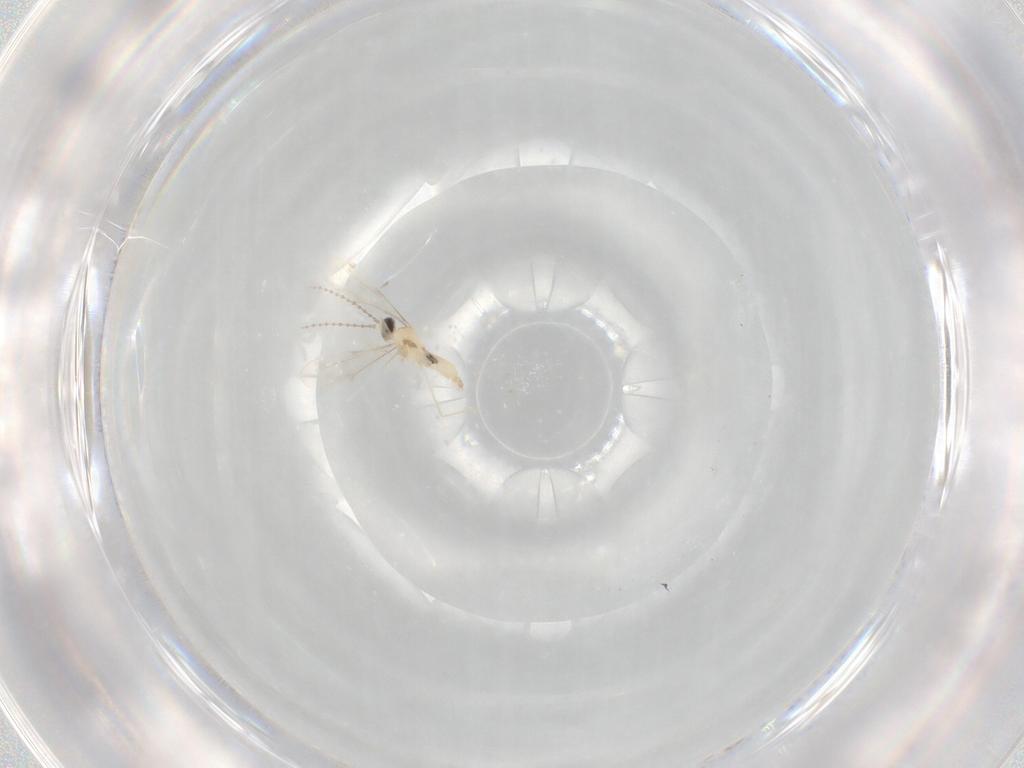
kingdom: Animalia
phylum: Arthropoda
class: Insecta
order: Diptera
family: Cecidomyiidae
